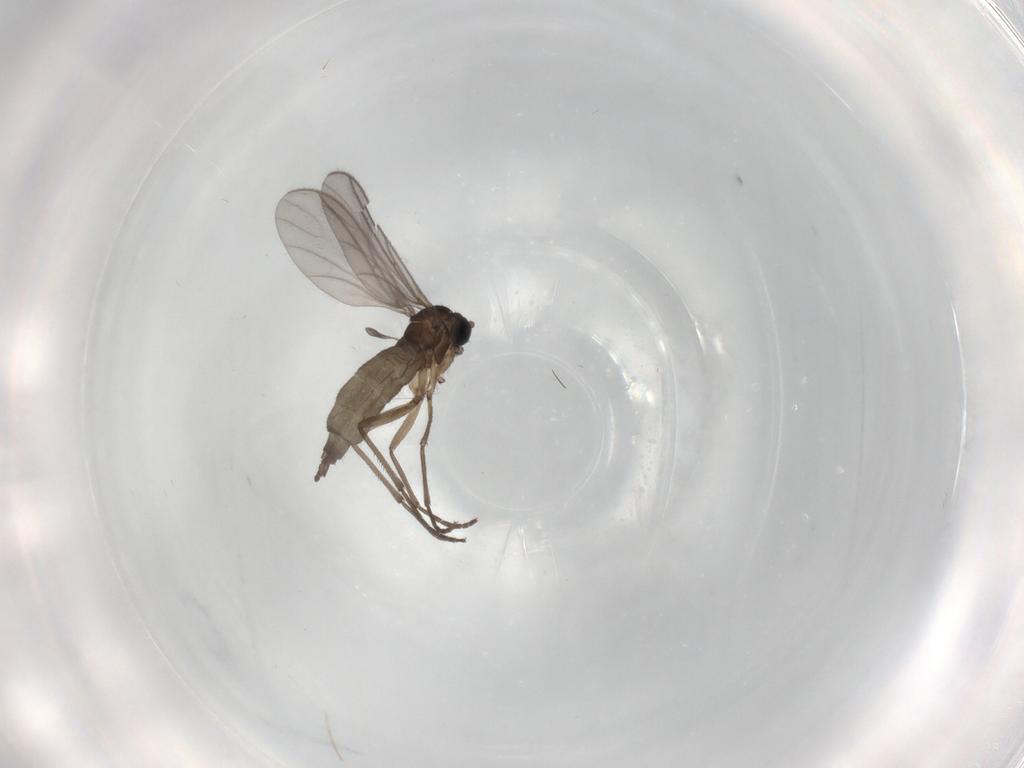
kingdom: Animalia
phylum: Arthropoda
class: Insecta
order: Diptera
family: Sciaridae
